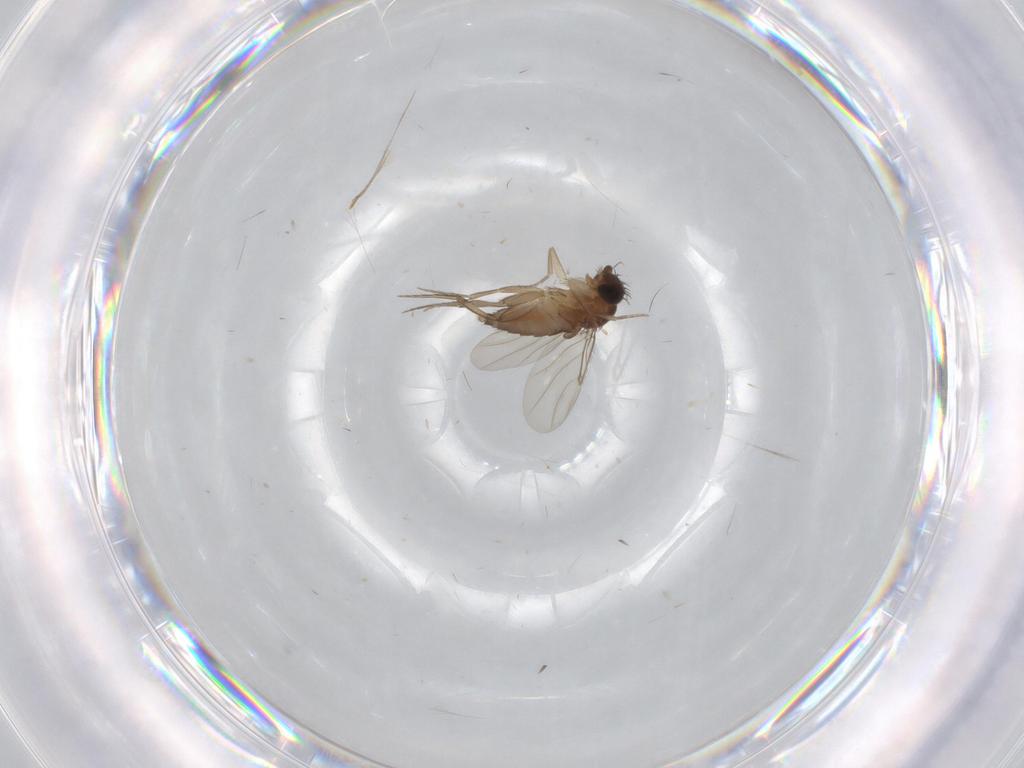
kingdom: Animalia
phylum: Arthropoda
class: Insecta
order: Diptera
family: Phoridae
